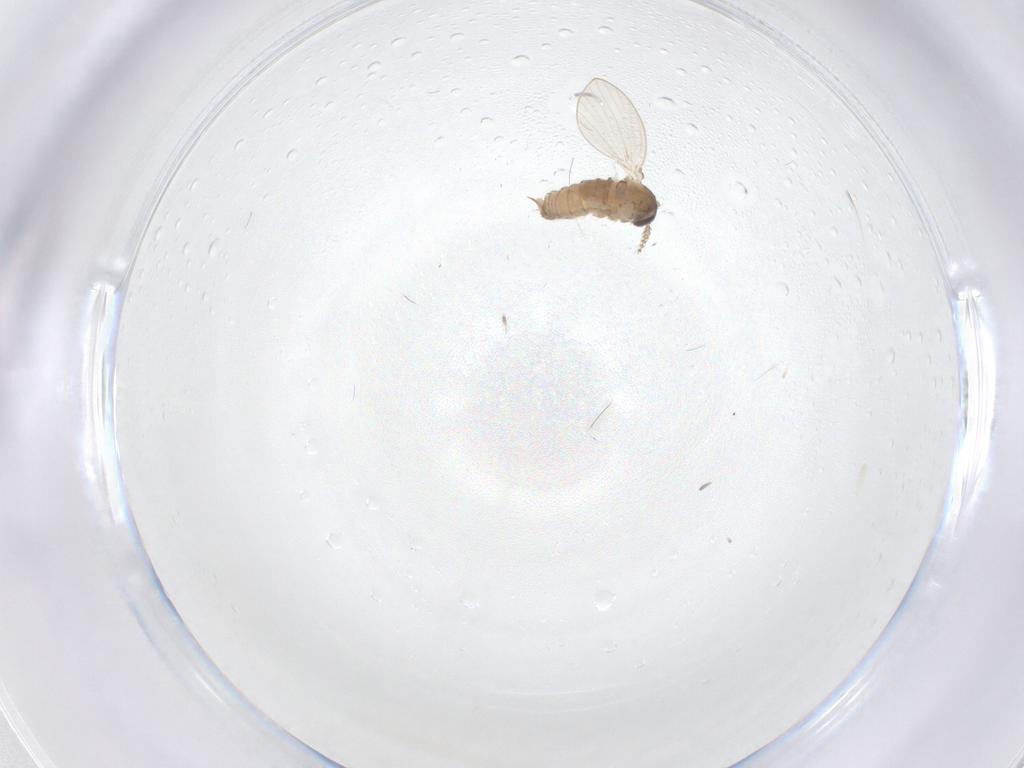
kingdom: Animalia
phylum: Arthropoda
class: Insecta
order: Diptera
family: Psychodidae
